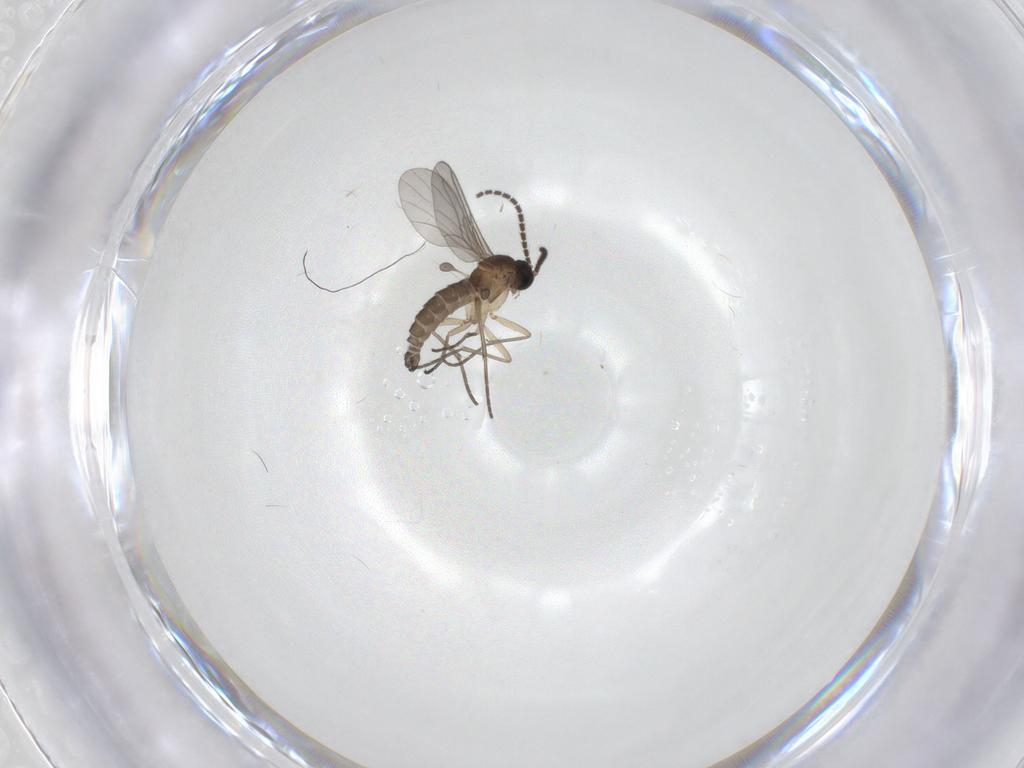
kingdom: Animalia
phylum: Arthropoda
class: Insecta
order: Diptera
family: Sciaridae
